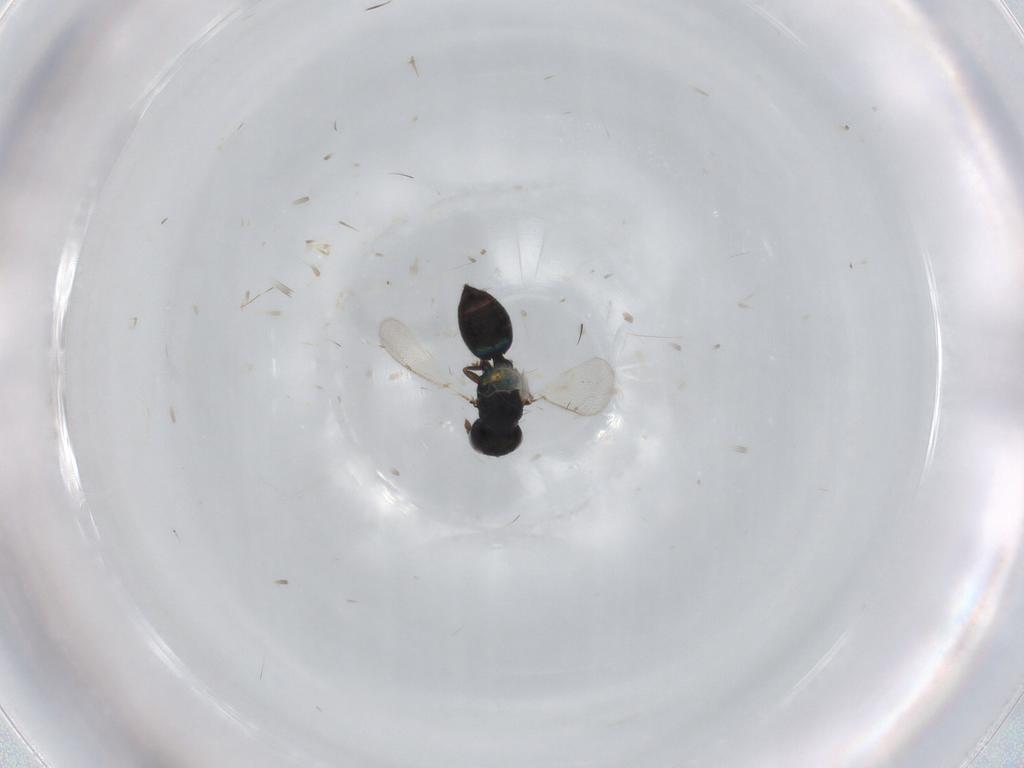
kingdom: Animalia
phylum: Arthropoda
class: Insecta
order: Hymenoptera
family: Eulophidae
